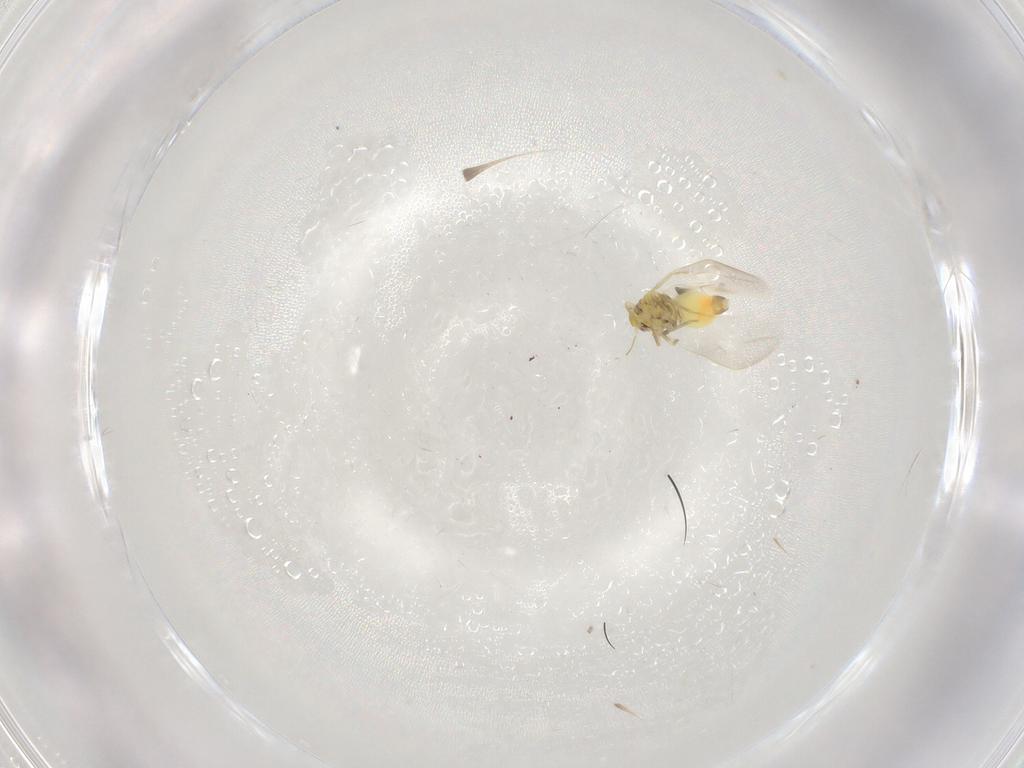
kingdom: Animalia
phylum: Arthropoda
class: Insecta
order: Hemiptera
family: Aleyrodidae
